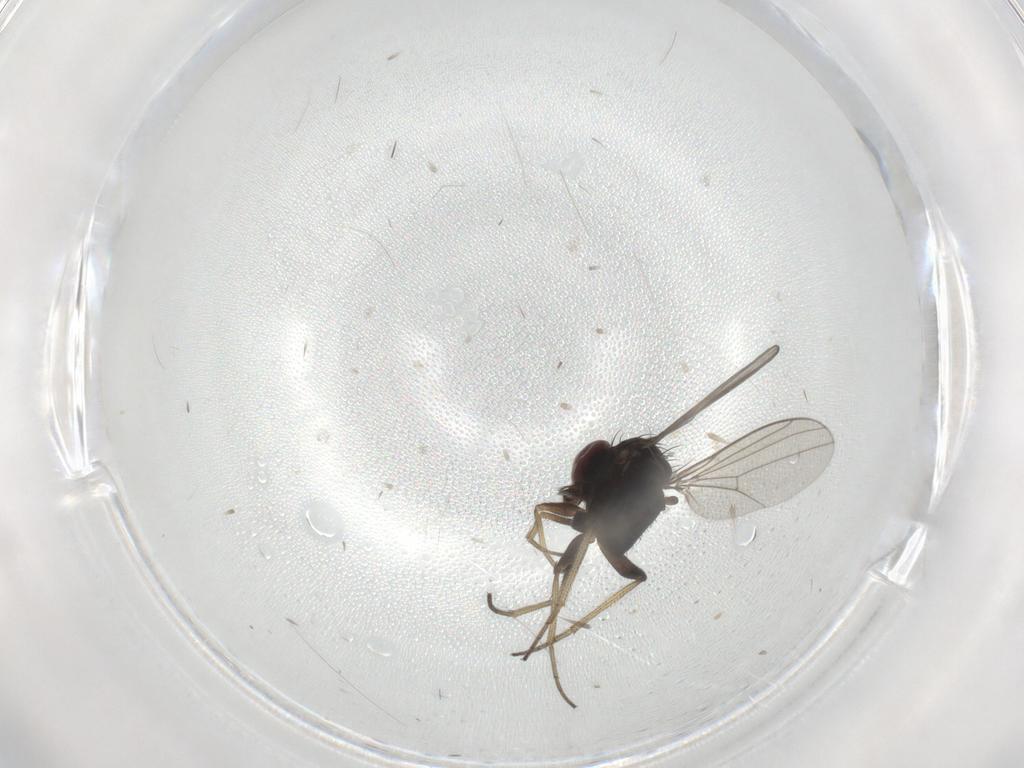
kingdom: Animalia
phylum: Arthropoda
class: Insecta
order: Diptera
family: Dolichopodidae
